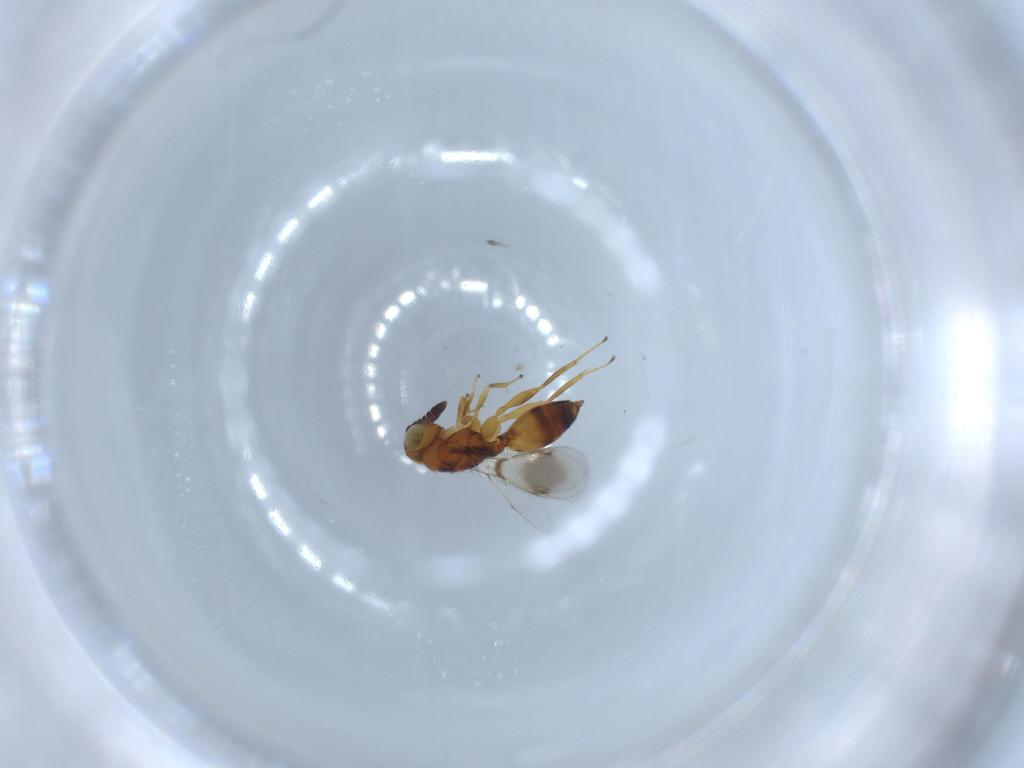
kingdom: Animalia
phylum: Arthropoda
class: Insecta
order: Hymenoptera
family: Moranilidae
